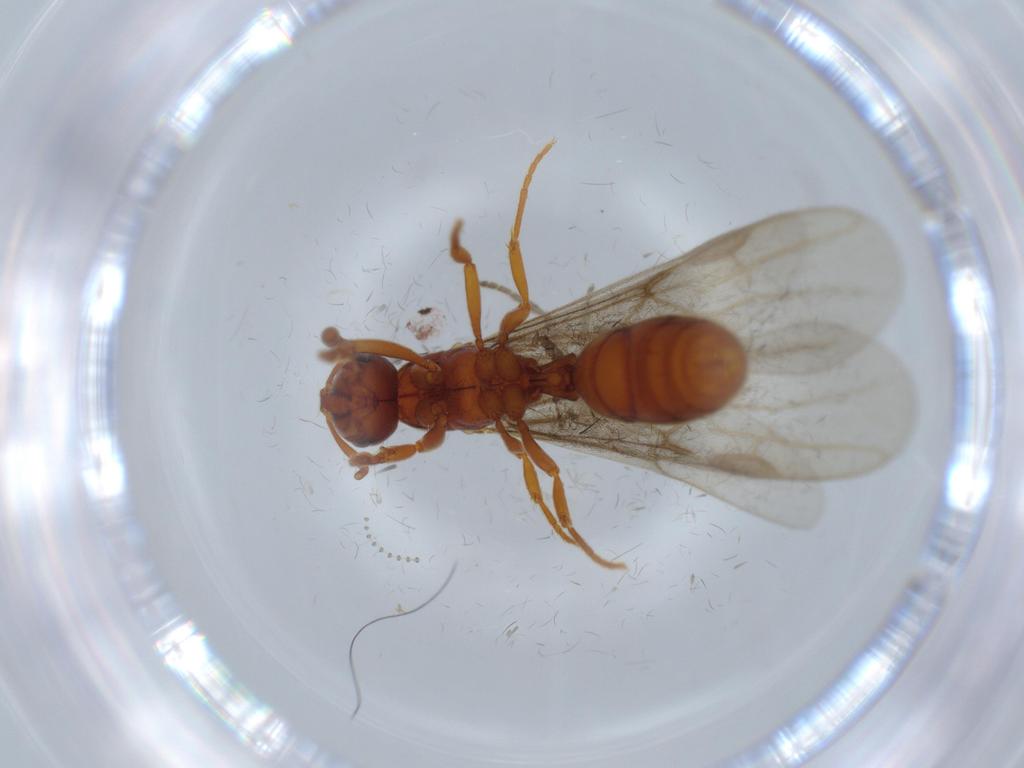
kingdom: Animalia
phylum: Arthropoda
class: Insecta
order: Hymenoptera
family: Formicidae
